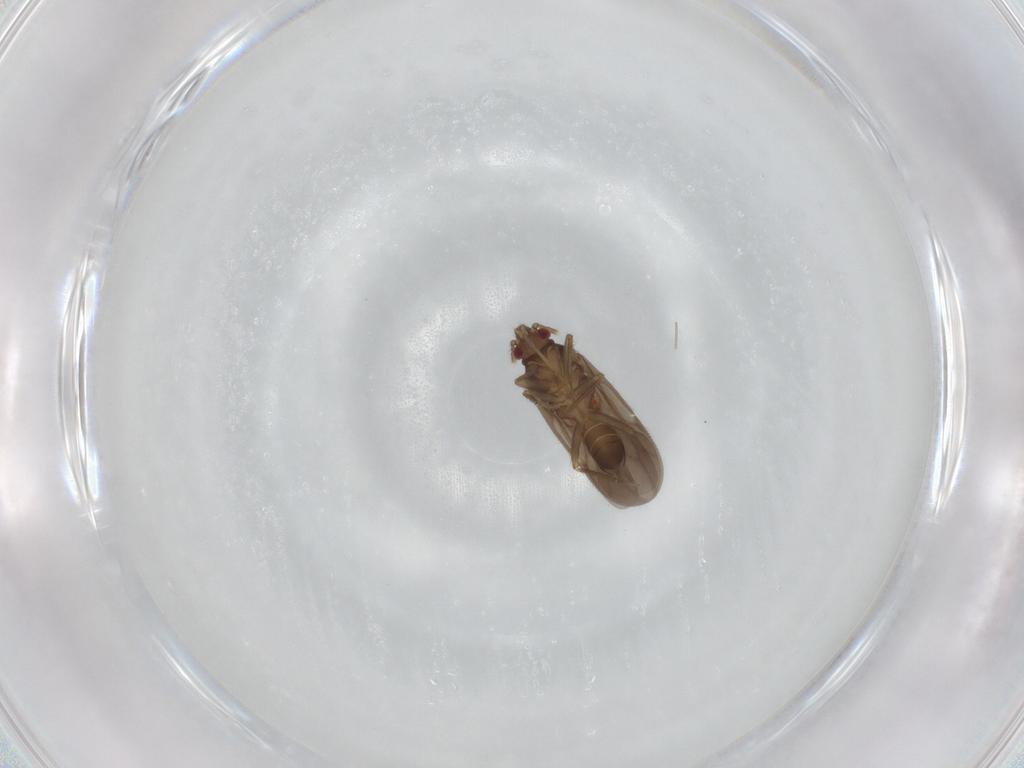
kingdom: Animalia
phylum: Arthropoda
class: Insecta
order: Hemiptera
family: Ceratocombidae
